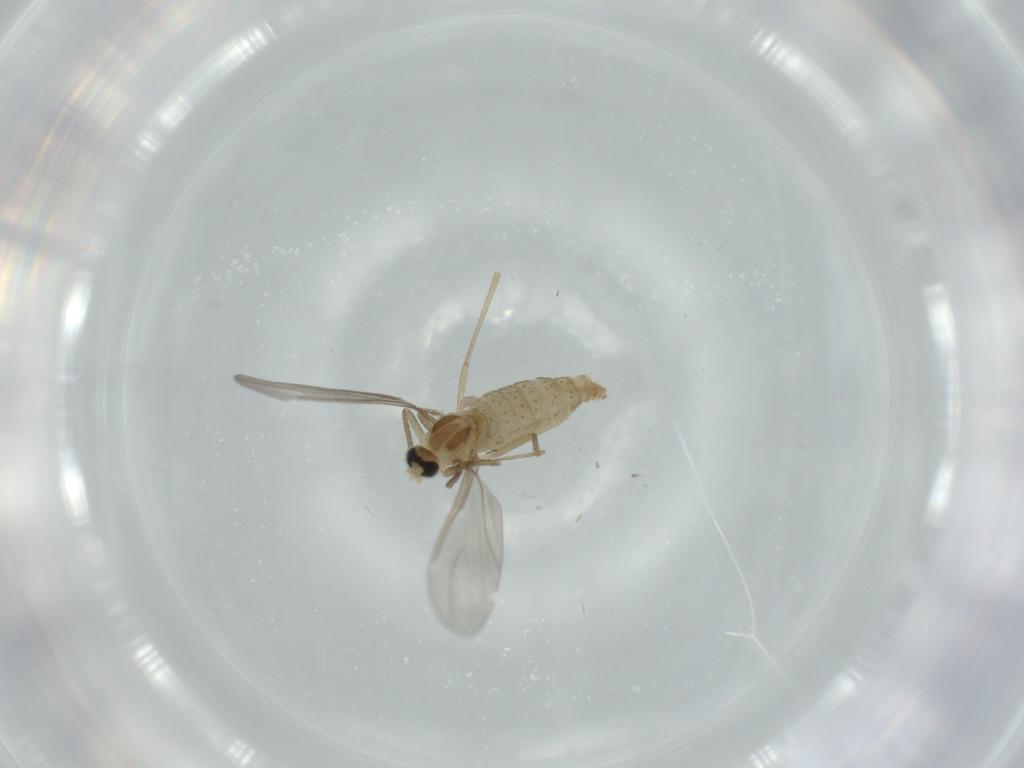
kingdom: Animalia
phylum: Arthropoda
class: Insecta
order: Diptera
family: Cecidomyiidae
